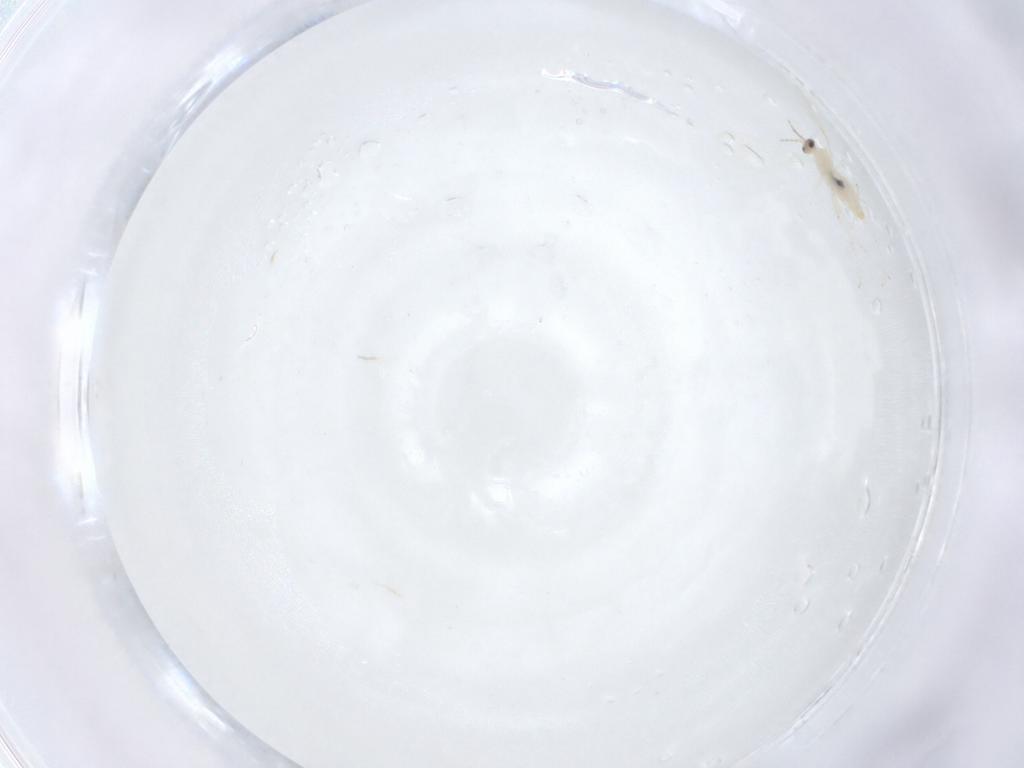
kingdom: Animalia
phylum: Arthropoda
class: Insecta
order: Diptera
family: Cecidomyiidae
